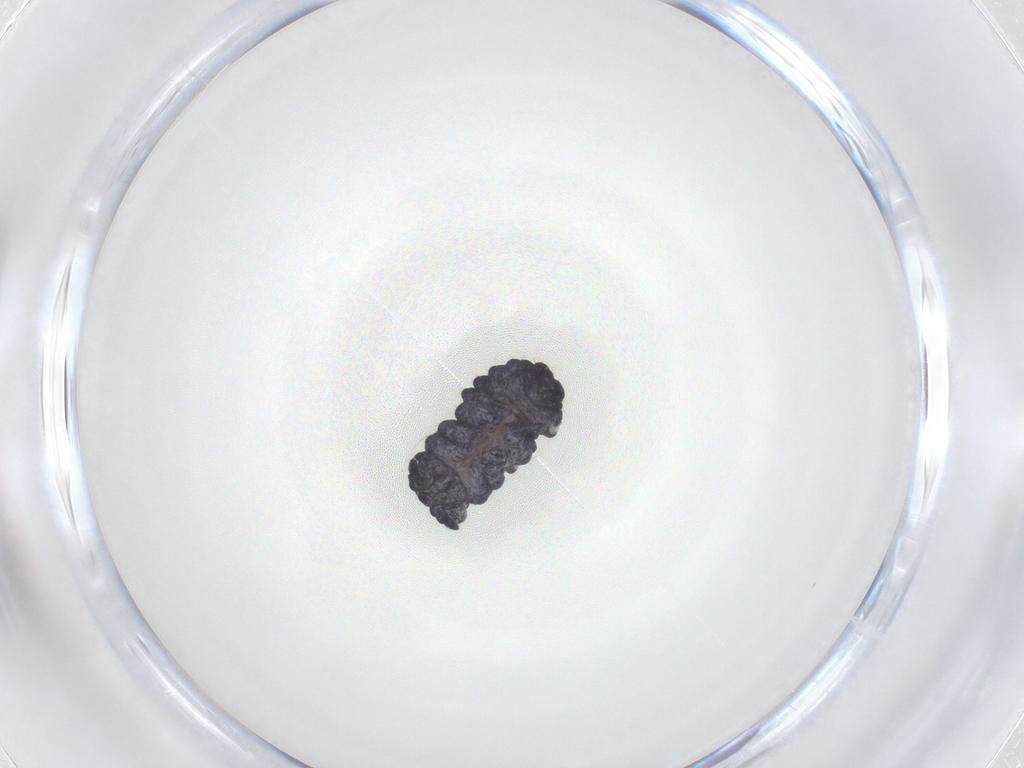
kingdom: Animalia
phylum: Arthropoda
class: Collembola
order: Poduromorpha
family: Neanuridae
